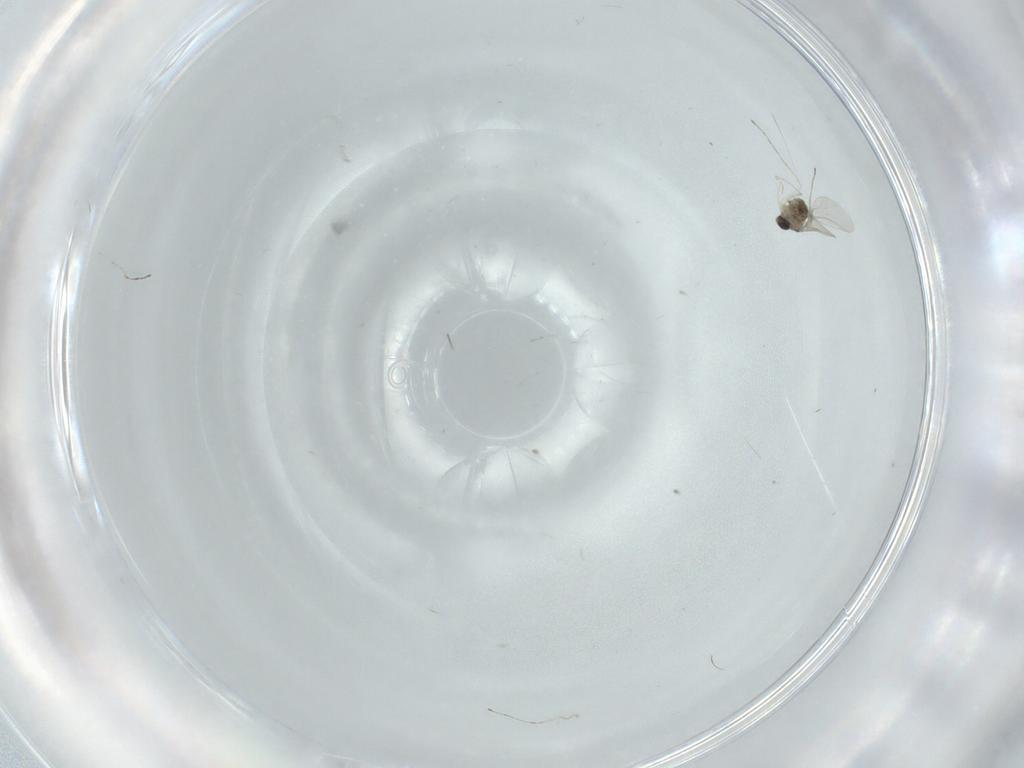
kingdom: Animalia
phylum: Arthropoda
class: Insecta
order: Diptera
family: Cecidomyiidae
